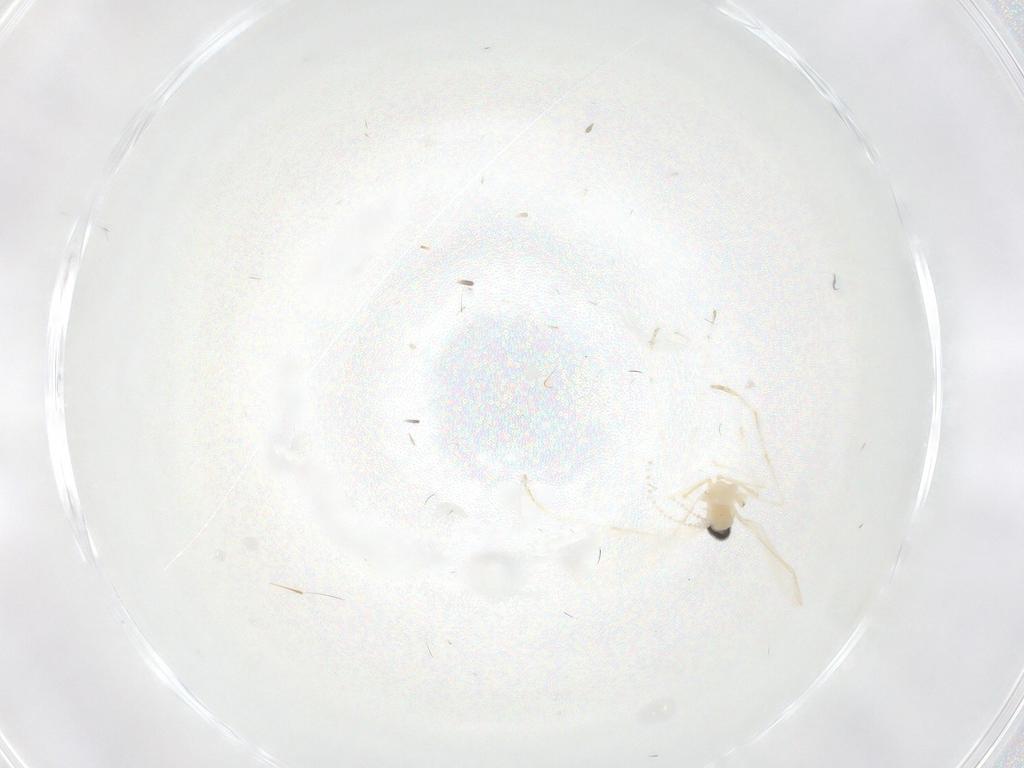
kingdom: Animalia
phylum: Arthropoda
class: Insecta
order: Diptera
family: Cecidomyiidae
